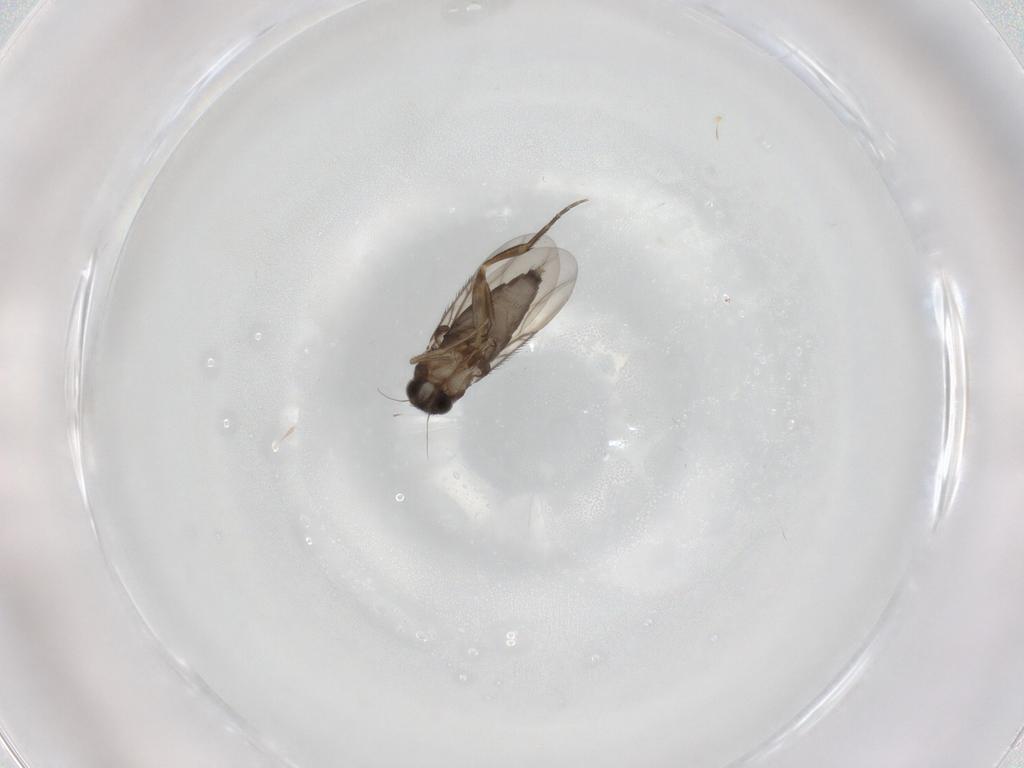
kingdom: Animalia
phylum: Arthropoda
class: Insecta
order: Diptera
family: Phoridae
